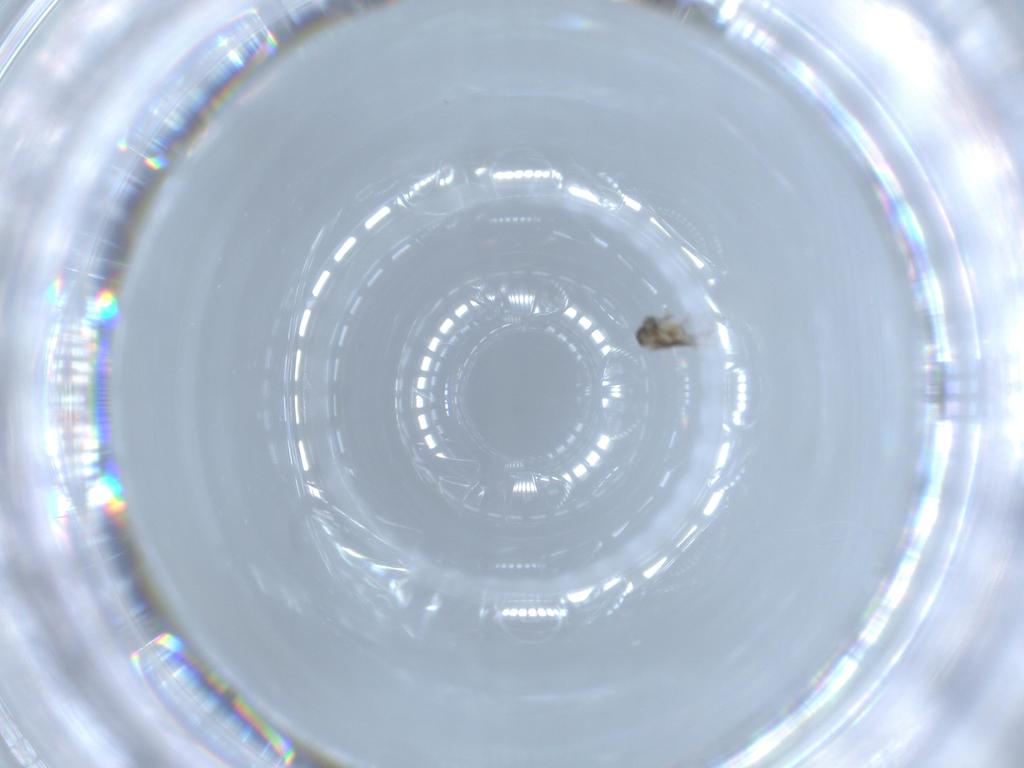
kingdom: Animalia
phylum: Arthropoda
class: Insecta
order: Diptera
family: Cecidomyiidae
